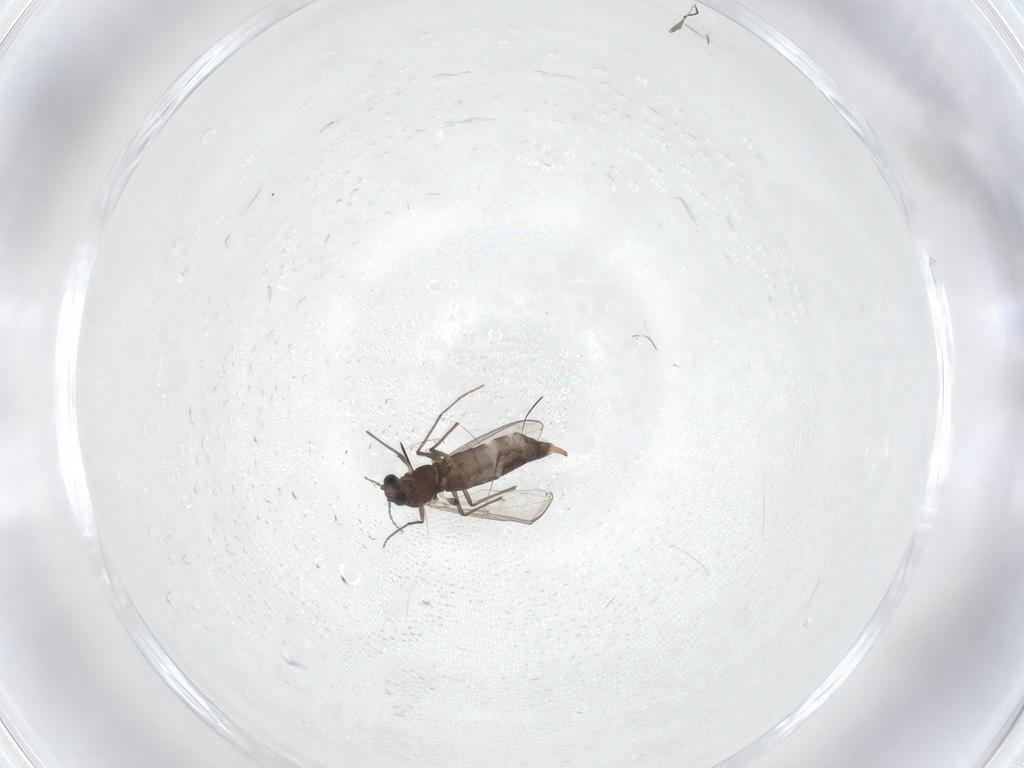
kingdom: Animalia
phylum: Arthropoda
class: Insecta
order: Diptera
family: Chironomidae
